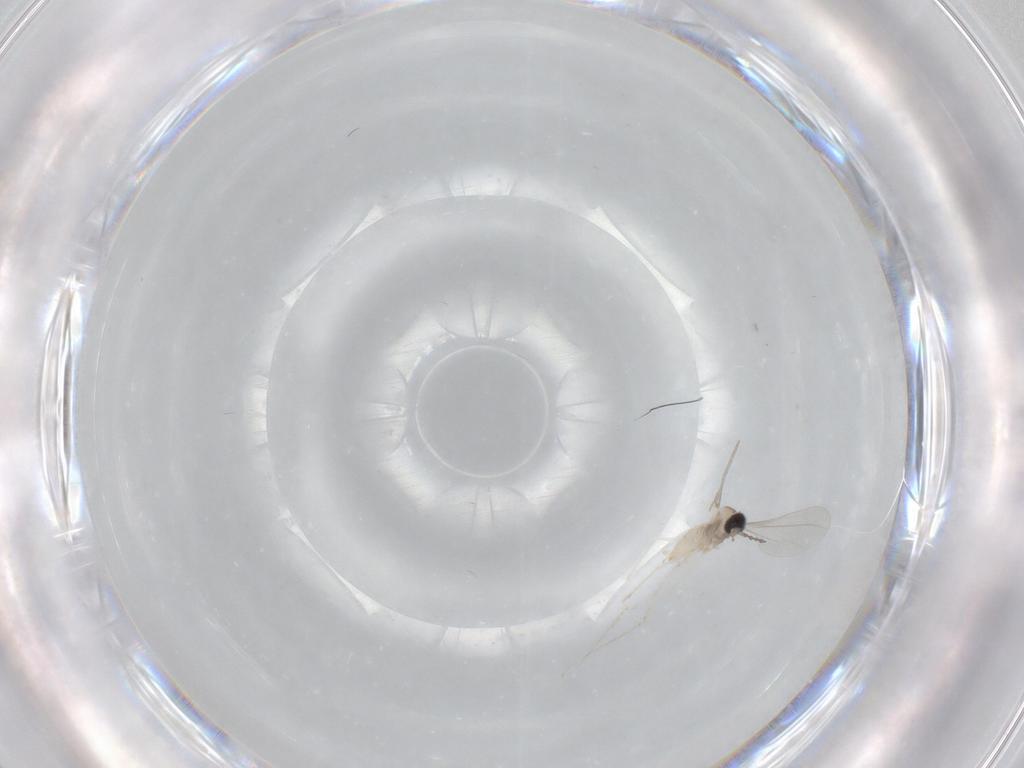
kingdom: Animalia
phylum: Arthropoda
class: Insecta
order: Diptera
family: Cecidomyiidae
